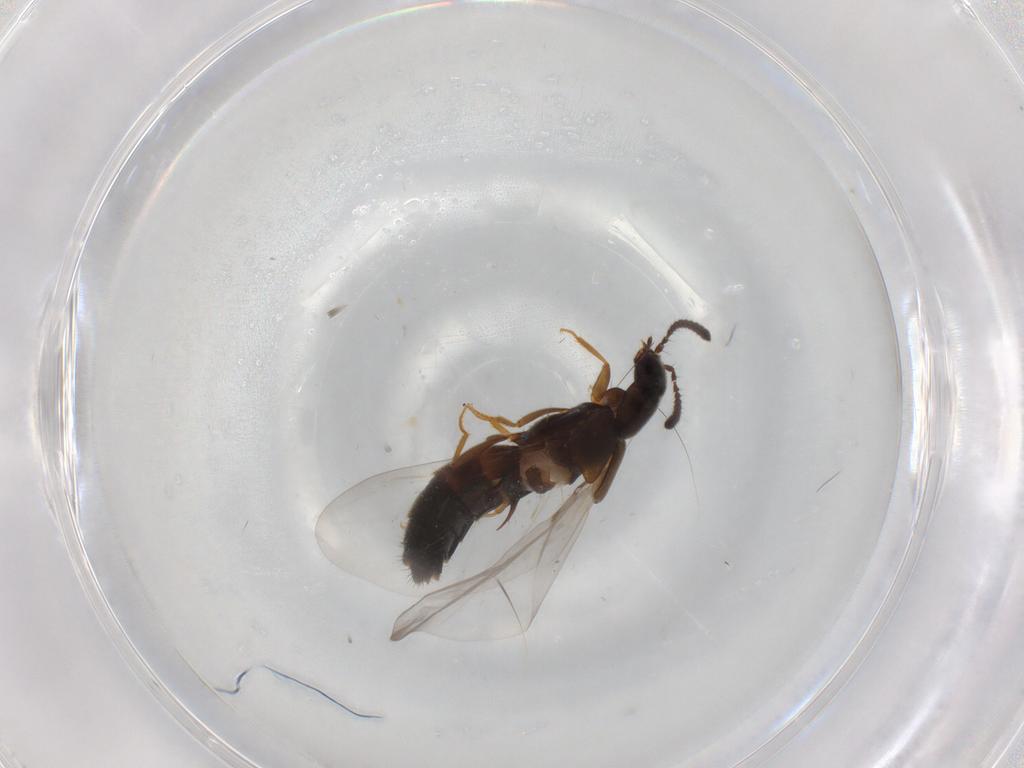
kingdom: Animalia
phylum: Arthropoda
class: Insecta
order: Coleoptera
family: Staphylinidae
